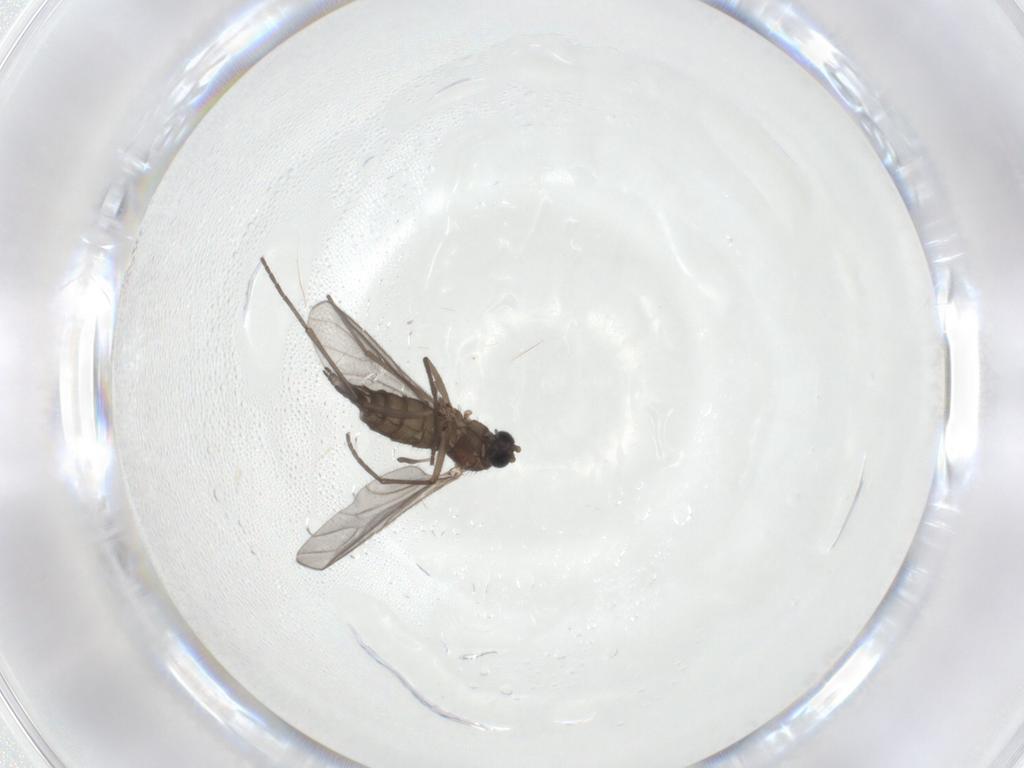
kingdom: Animalia
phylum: Arthropoda
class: Insecta
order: Diptera
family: Sciaridae
